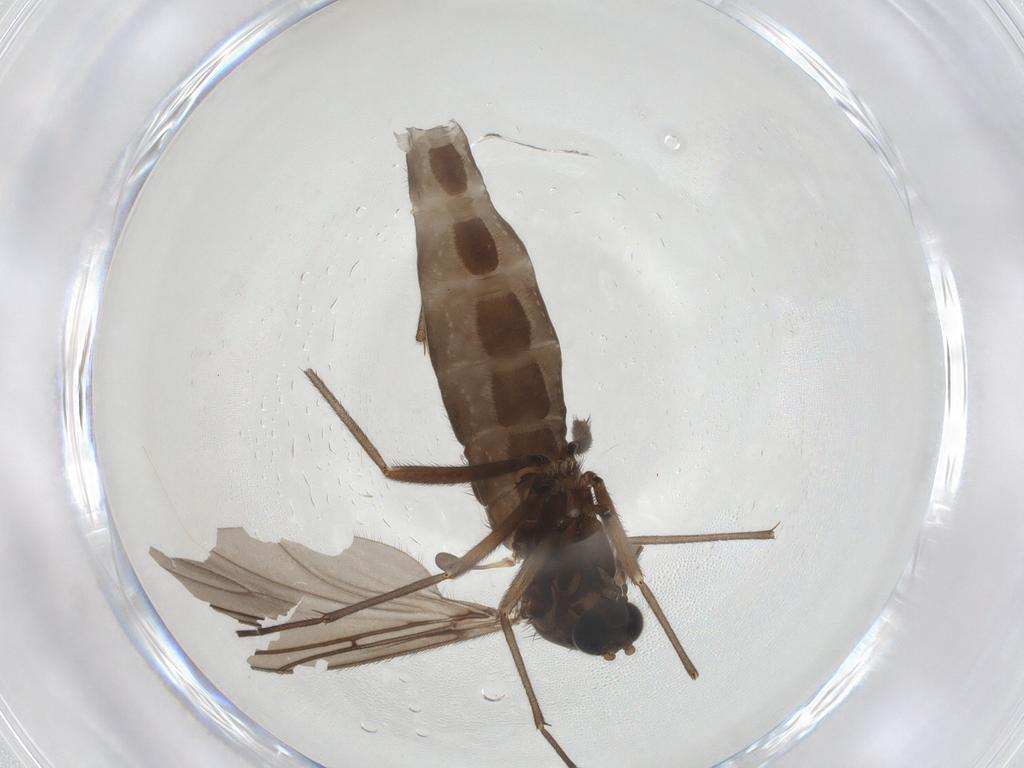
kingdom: Animalia
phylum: Arthropoda
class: Insecta
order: Diptera
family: Sciaridae
